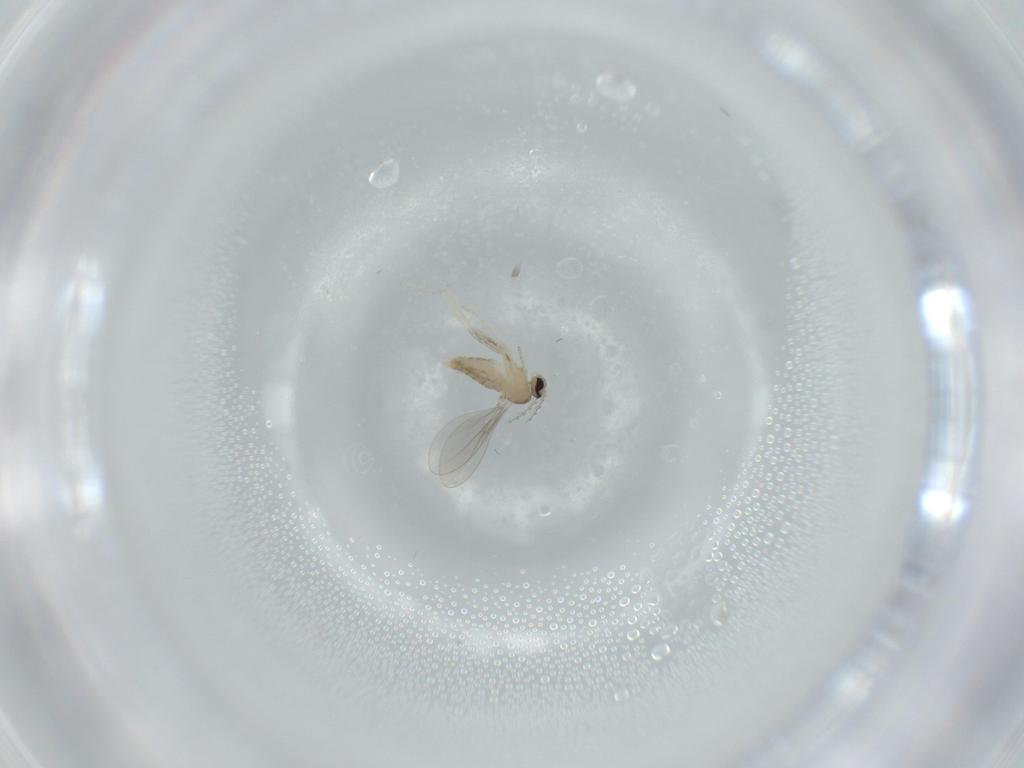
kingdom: Animalia
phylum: Arthropoda
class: Insecta
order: Diptera
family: Cecidomyiidae
